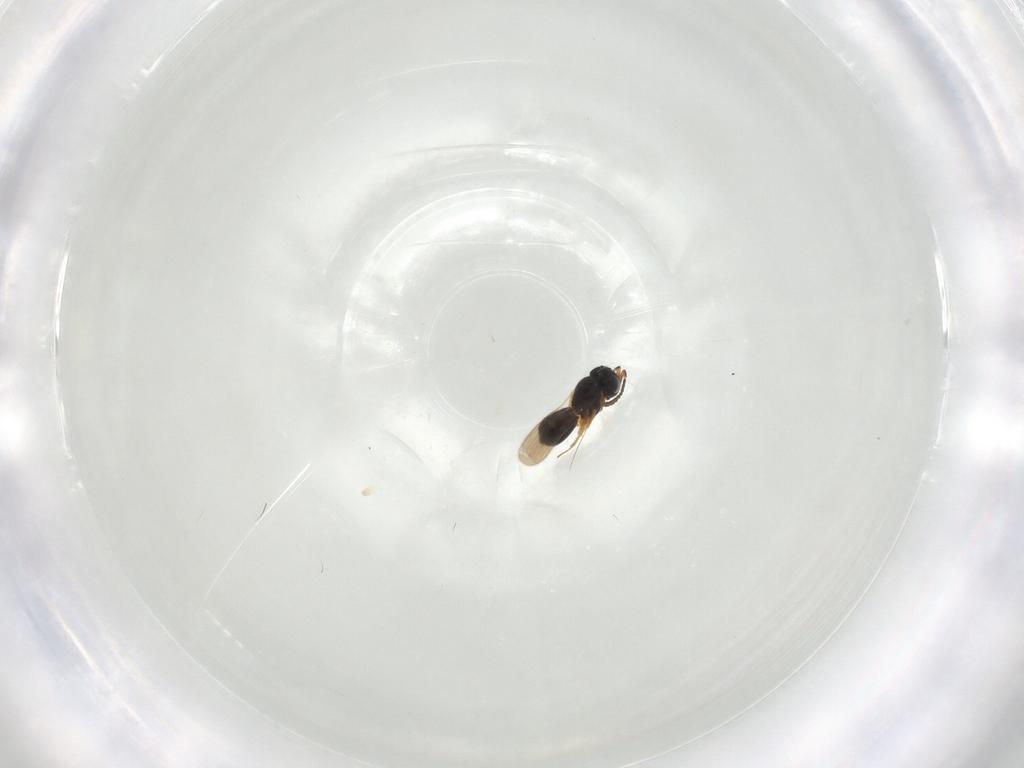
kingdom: Animalia
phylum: Arthropoda
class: Insecta
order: Hymenoptera
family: Scelionidae
